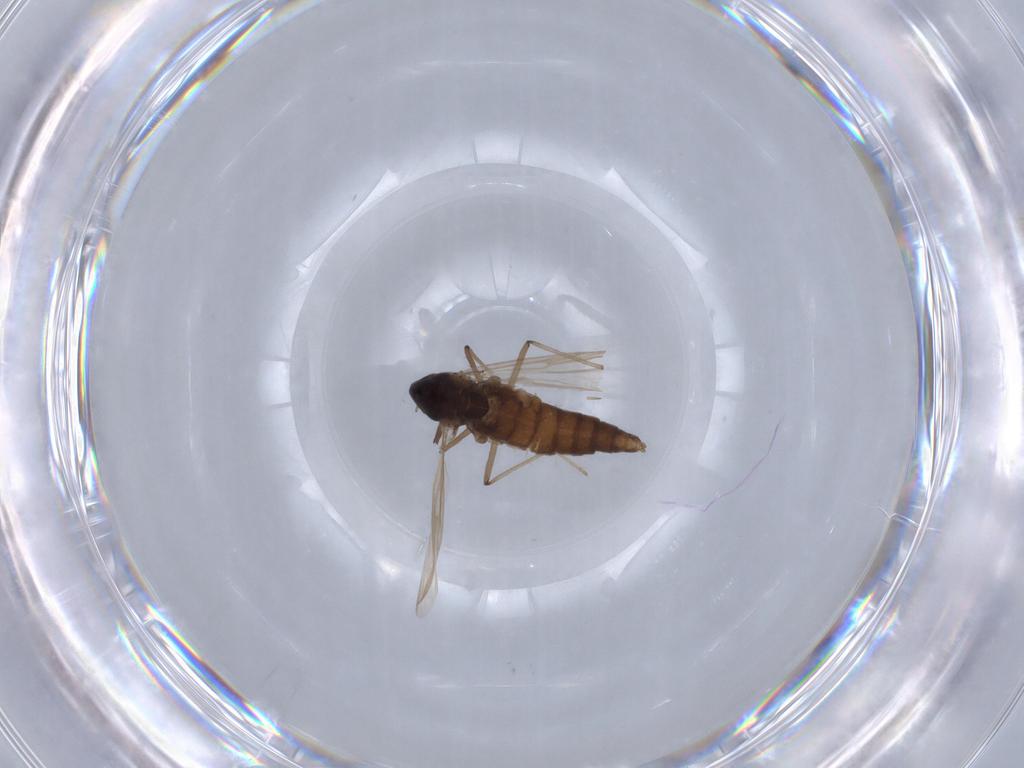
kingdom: Animalia
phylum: Arthropoda
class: Insecta
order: Diptera
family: Chironomidae
